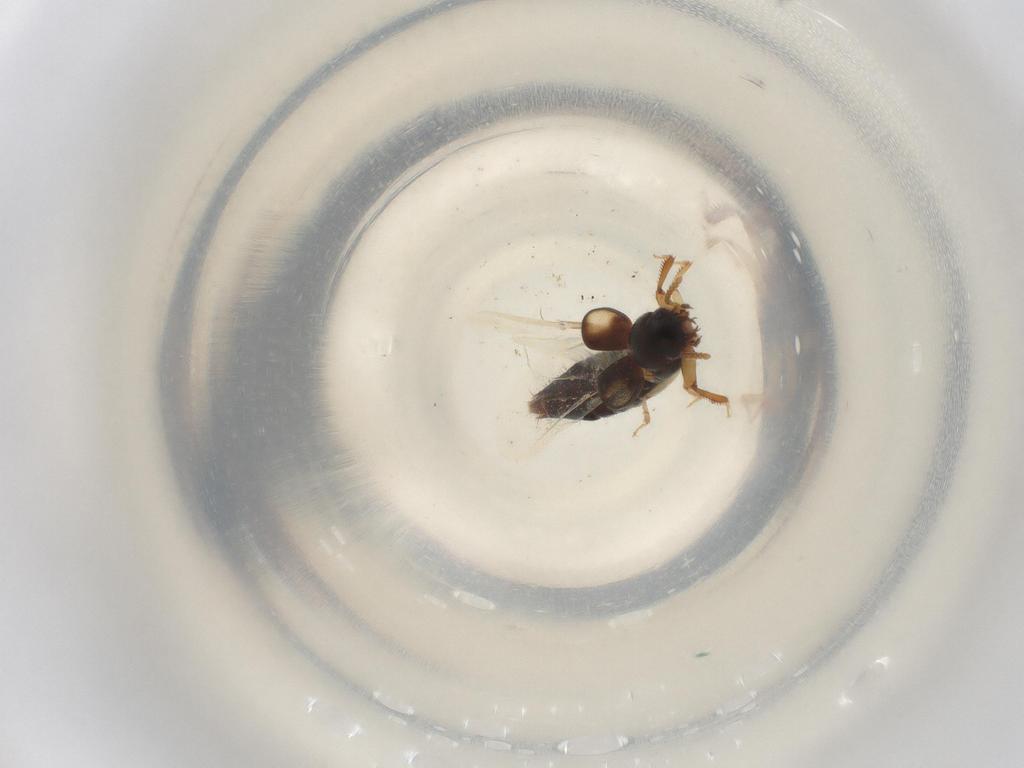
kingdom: Animalia
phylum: Arthropoda
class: Insecta
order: Coleoptera
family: Staphylinidae
